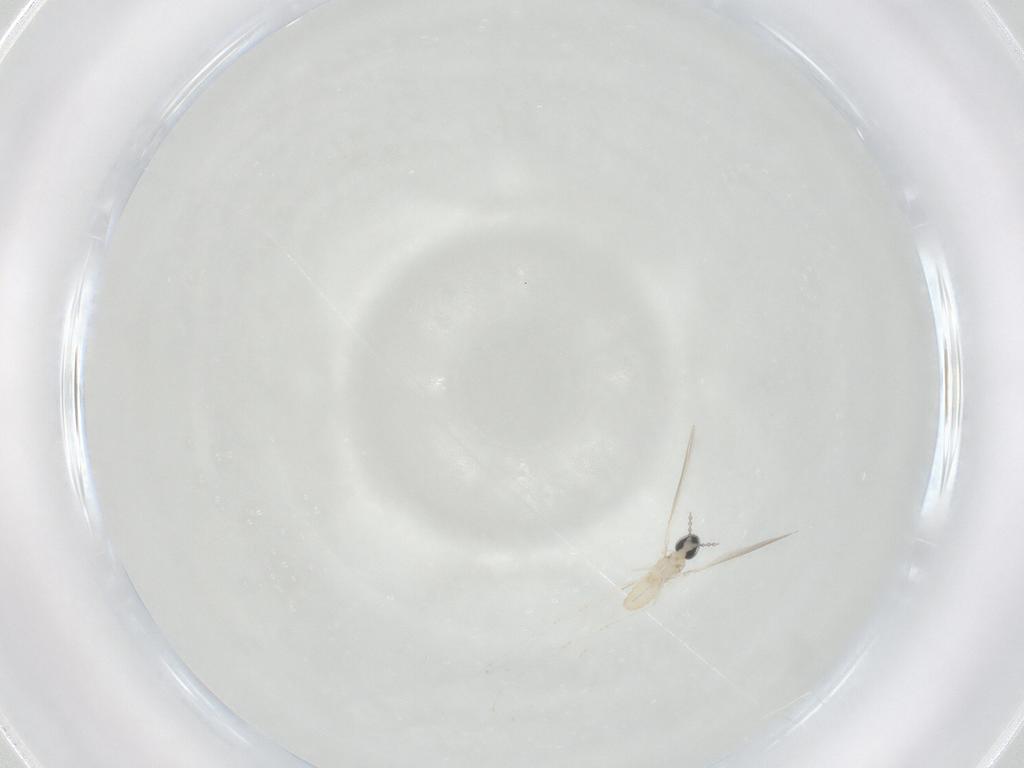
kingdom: Animalia
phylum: Arthropoda
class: Insecta
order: Diptera
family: Cecidomyiidae
